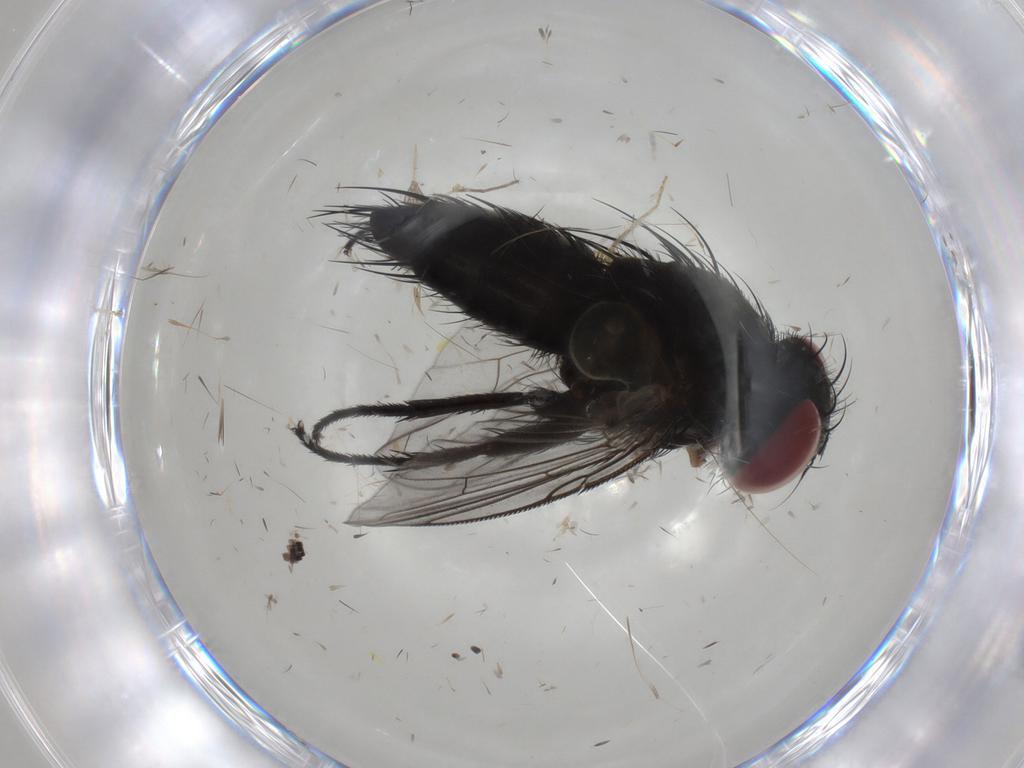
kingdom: Animalia
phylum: Arthropoda
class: Insecta
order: Diptera
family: Tachinidae
